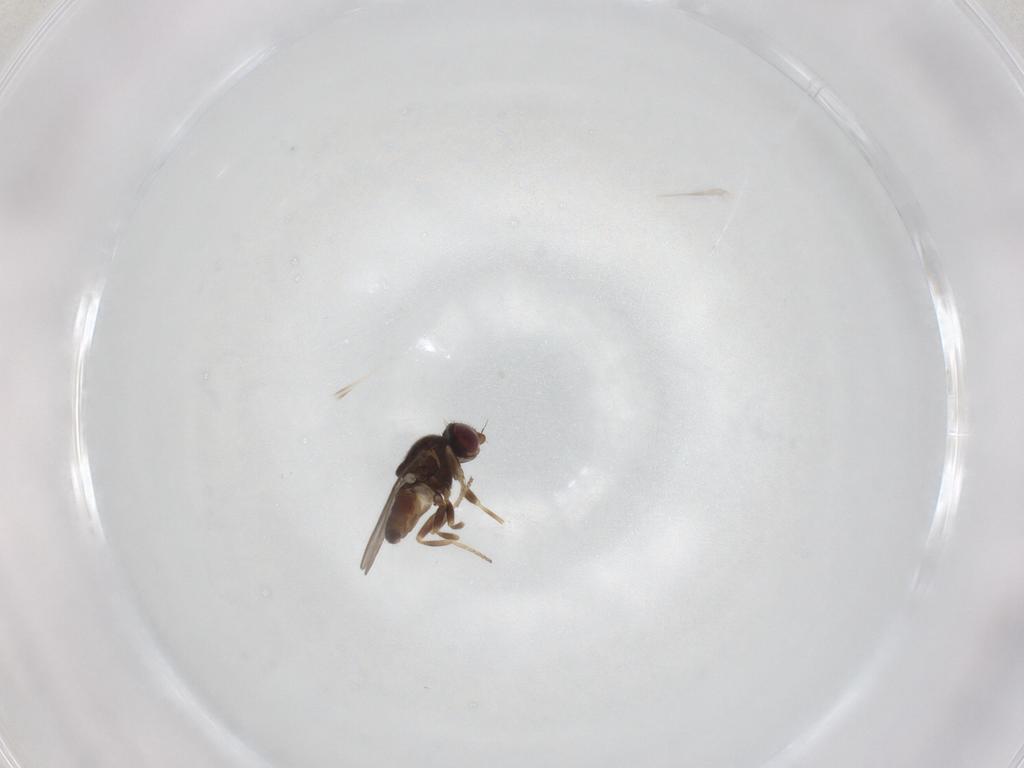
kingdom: Animalia
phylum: Arthropoda
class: Insecta
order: Diptera
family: Chloropidae
